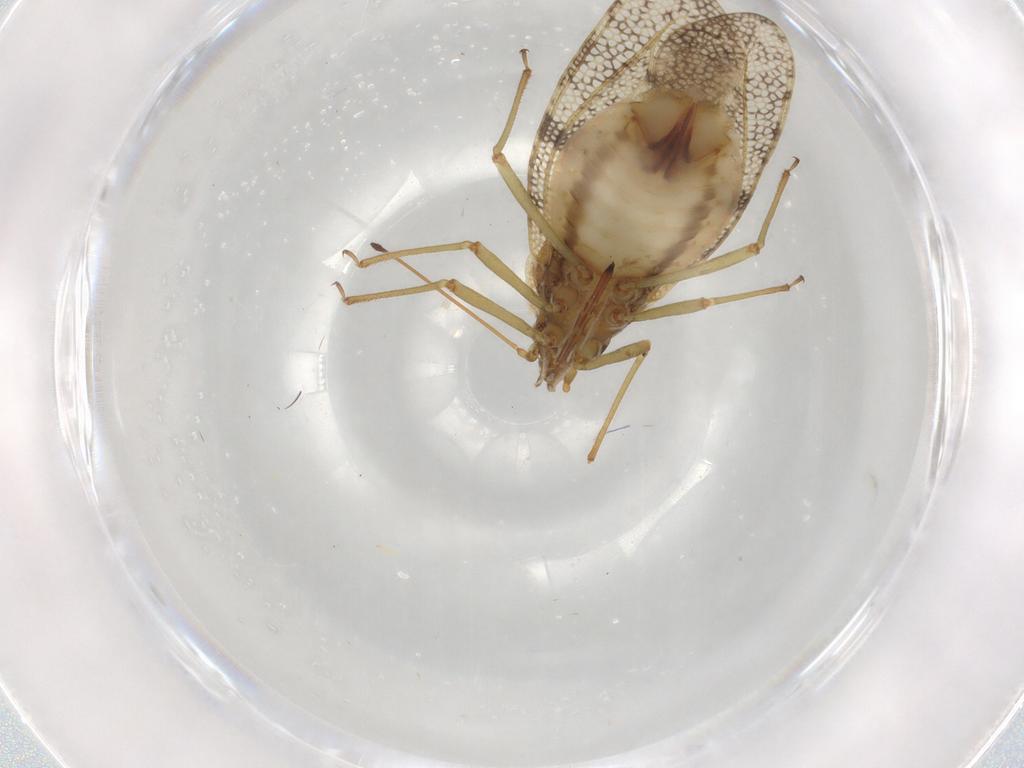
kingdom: Animalia
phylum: Arthropoda
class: Insecta
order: Hemiptera
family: Tingidae
